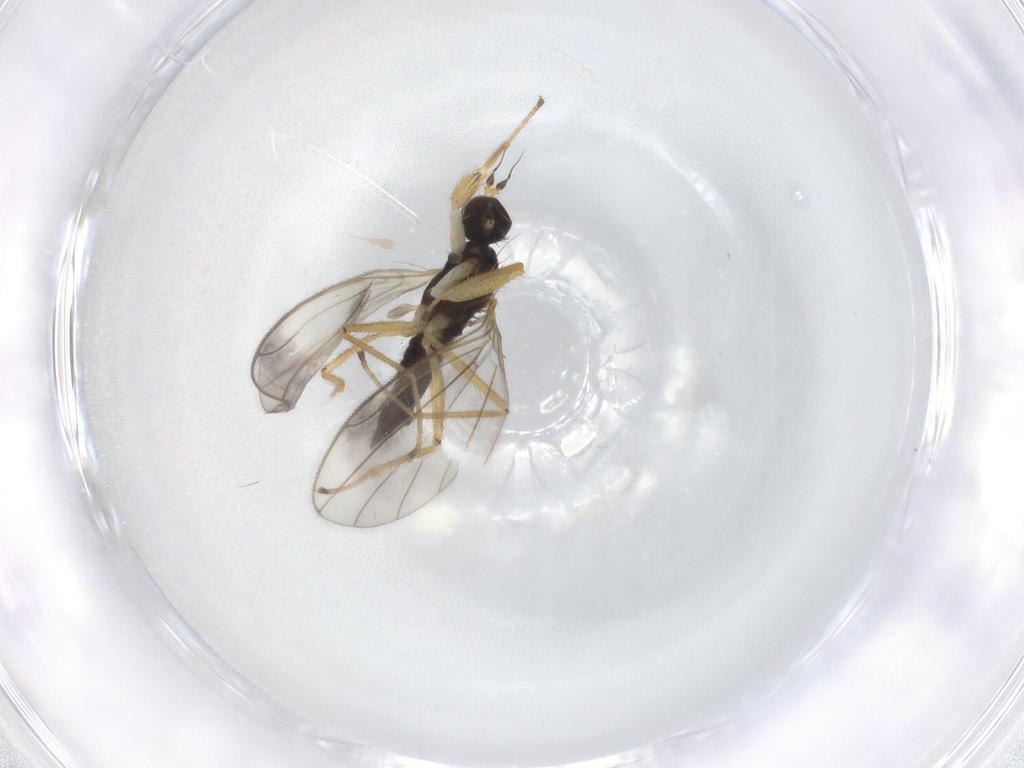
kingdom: Animalia
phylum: Arthropoda
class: Insecta
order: Diptera
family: Empididae
